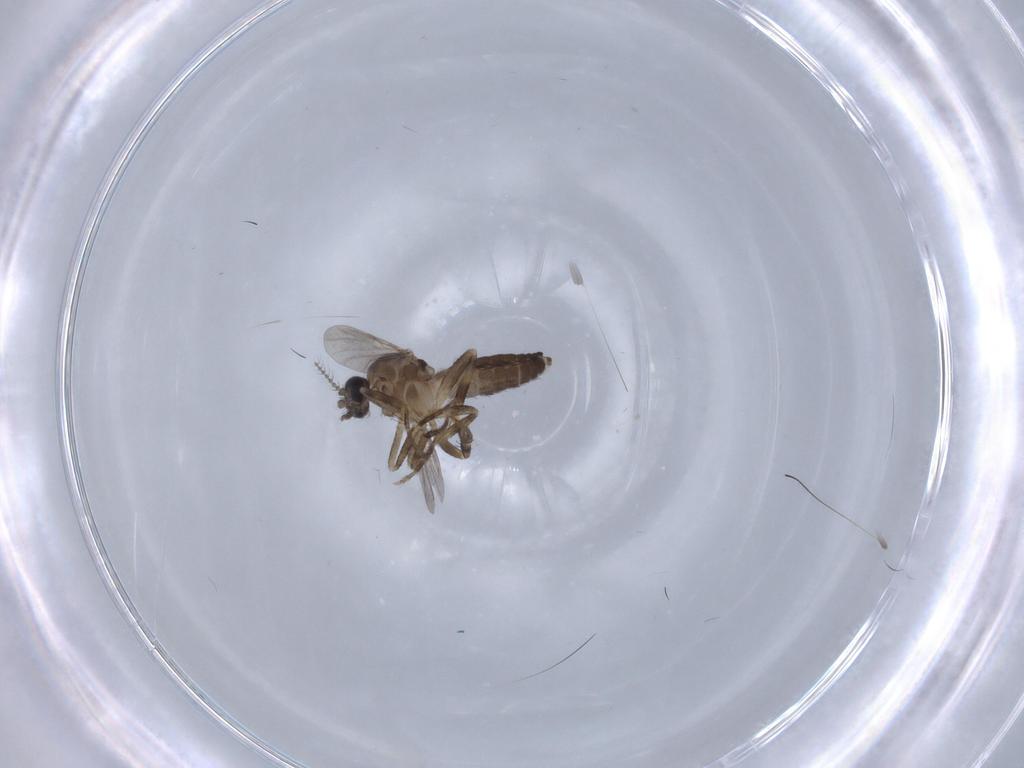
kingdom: Animalia
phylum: Arthropoda
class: Insecta
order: Diptera
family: Ceratopogonidae
